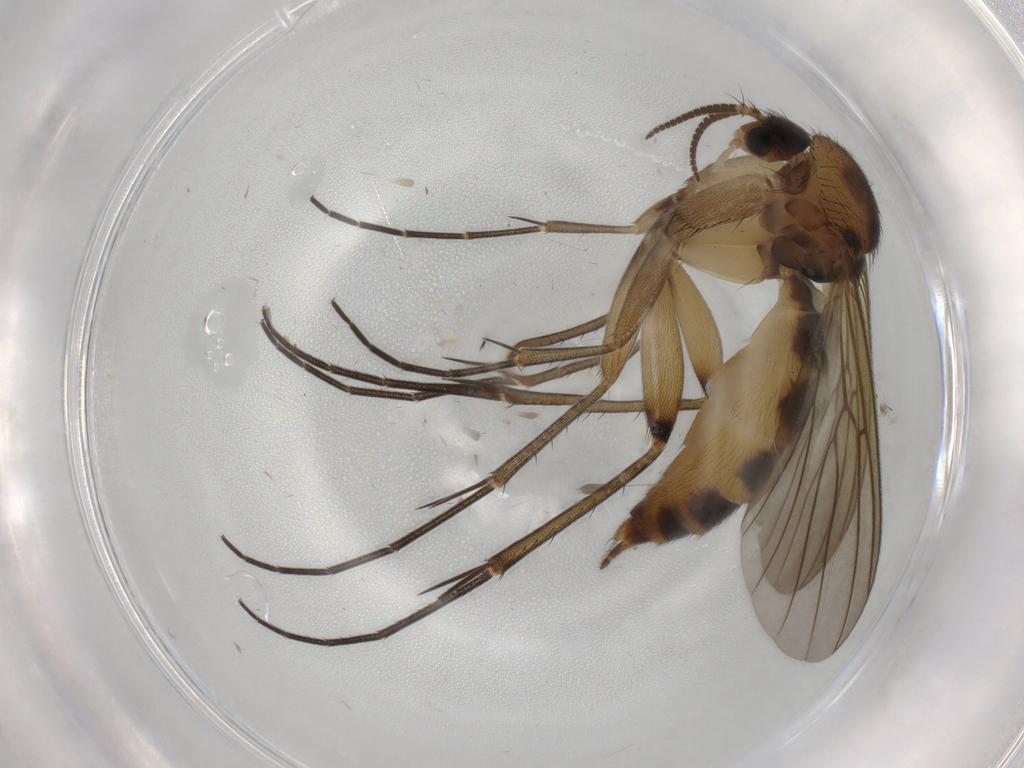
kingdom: Animalia
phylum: Arthropoda
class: Insecta
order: Diptera
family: Mycetophilidae
